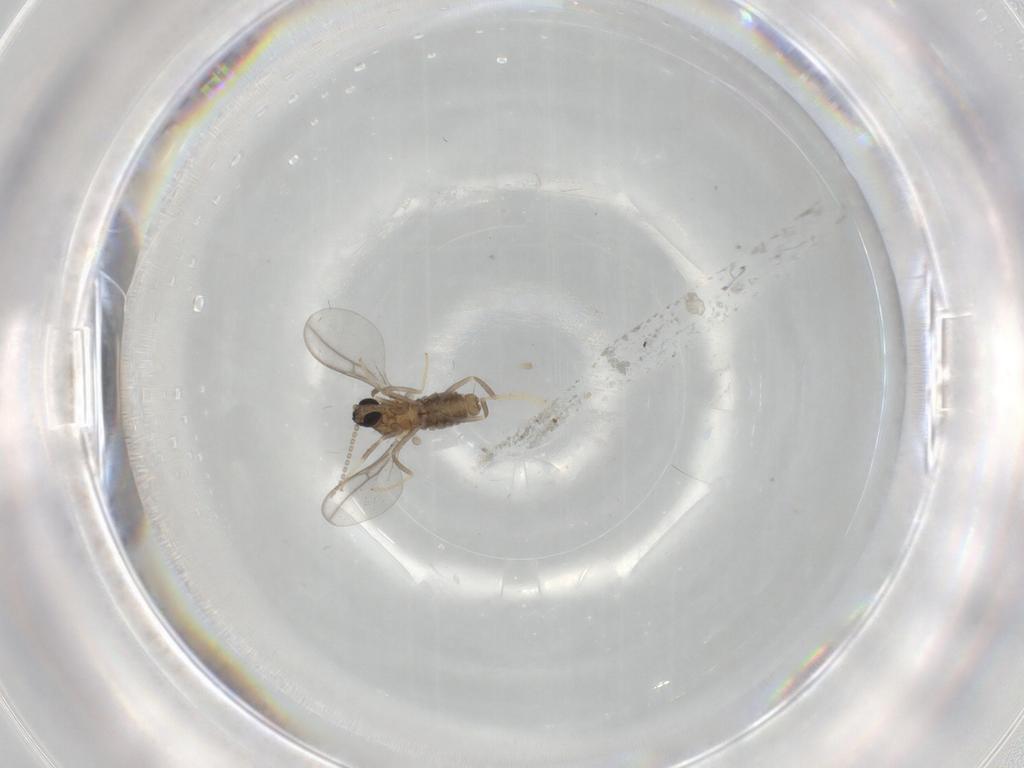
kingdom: Animalia
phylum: Arthropoda
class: Insecta
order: Diptera
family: Cecidomyiidae
